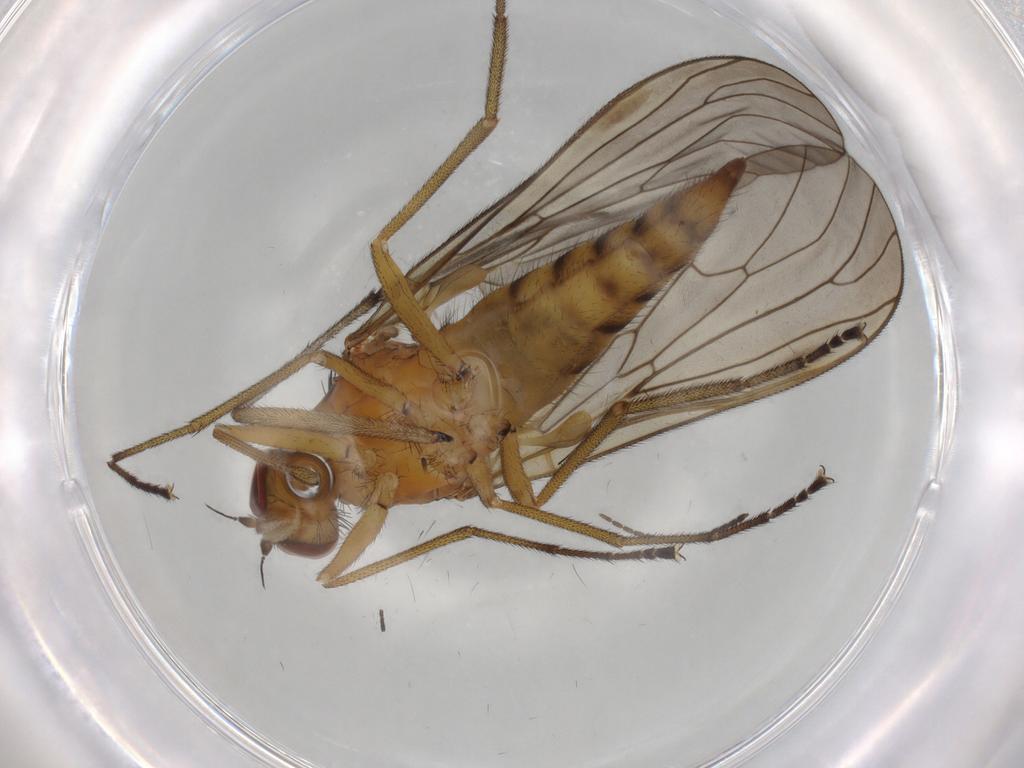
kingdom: Animalia
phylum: Arthropoda
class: Insecta
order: Diptera
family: Brachystomatidae
